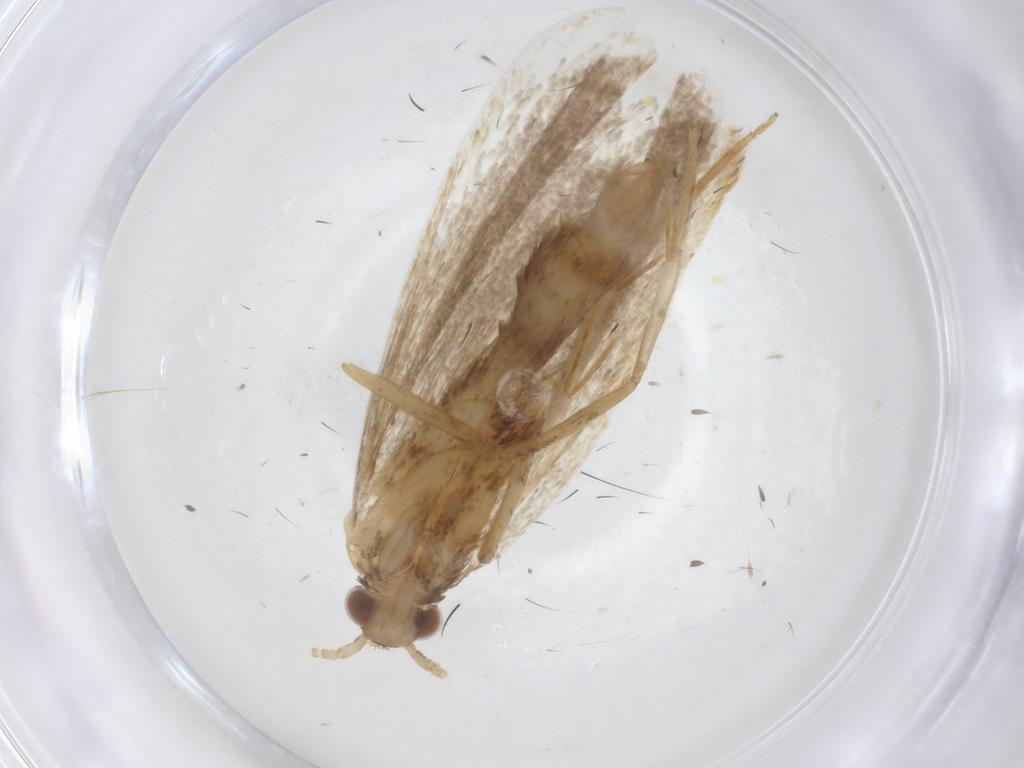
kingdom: Animalia
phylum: Arthropoda
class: Insecta
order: Lepidoptera
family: Lecithoceridae
